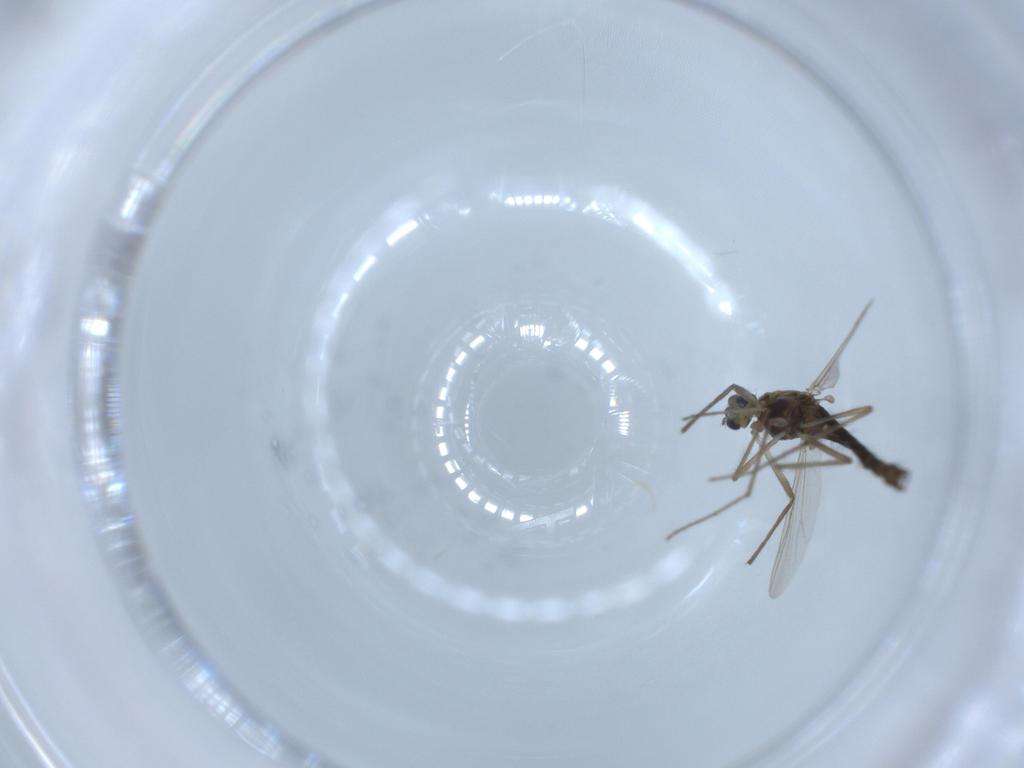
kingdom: Animalia
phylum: Arthropoda
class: Insecta
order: Diptera
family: Chironomidae
